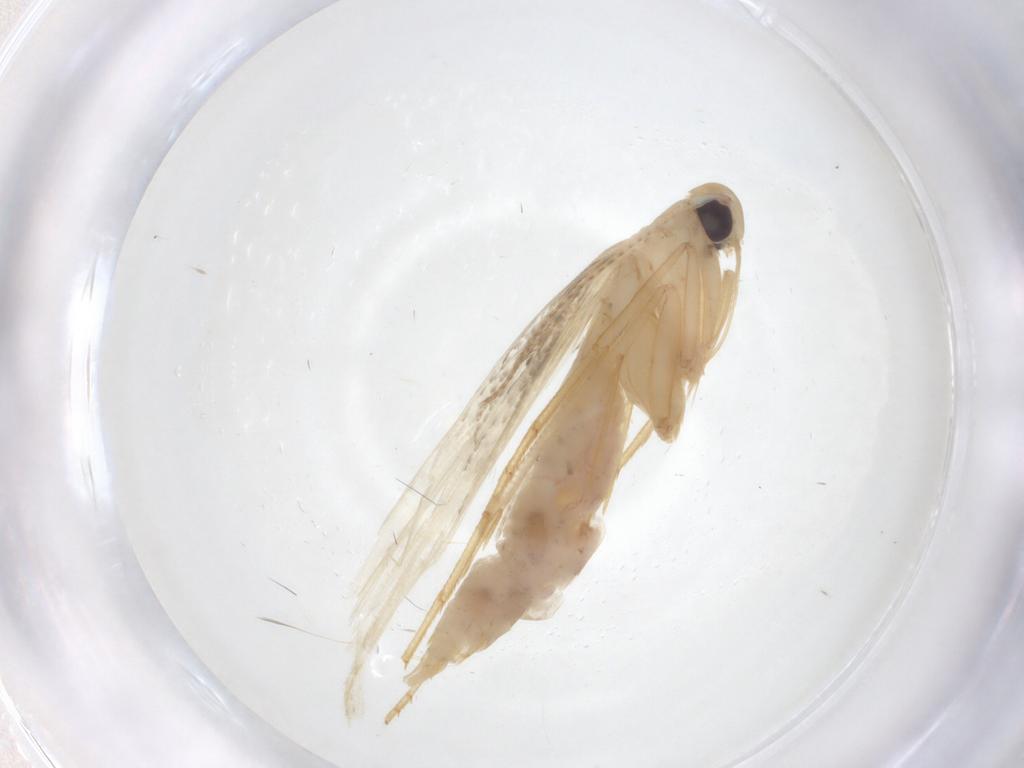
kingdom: Animalia
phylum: Arthropoda
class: Insecta
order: Lepidoptera
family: Erebidae
